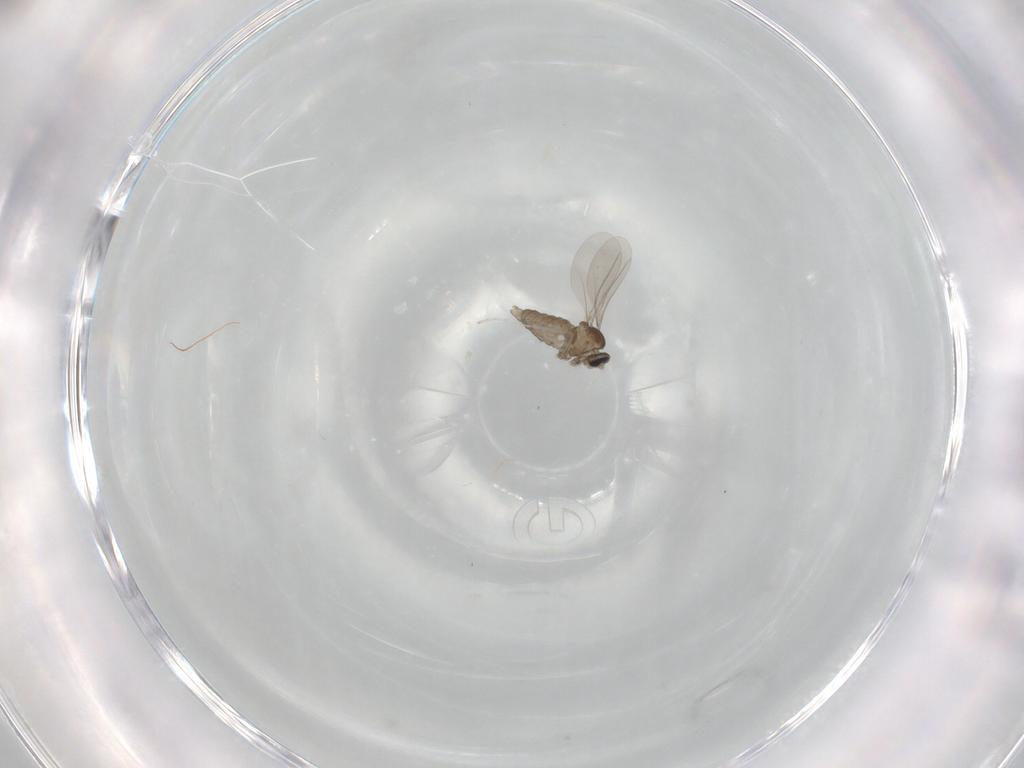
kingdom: Animalia
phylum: Arthropoda
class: Insecta
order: Diptera
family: Cecidomyiidae
